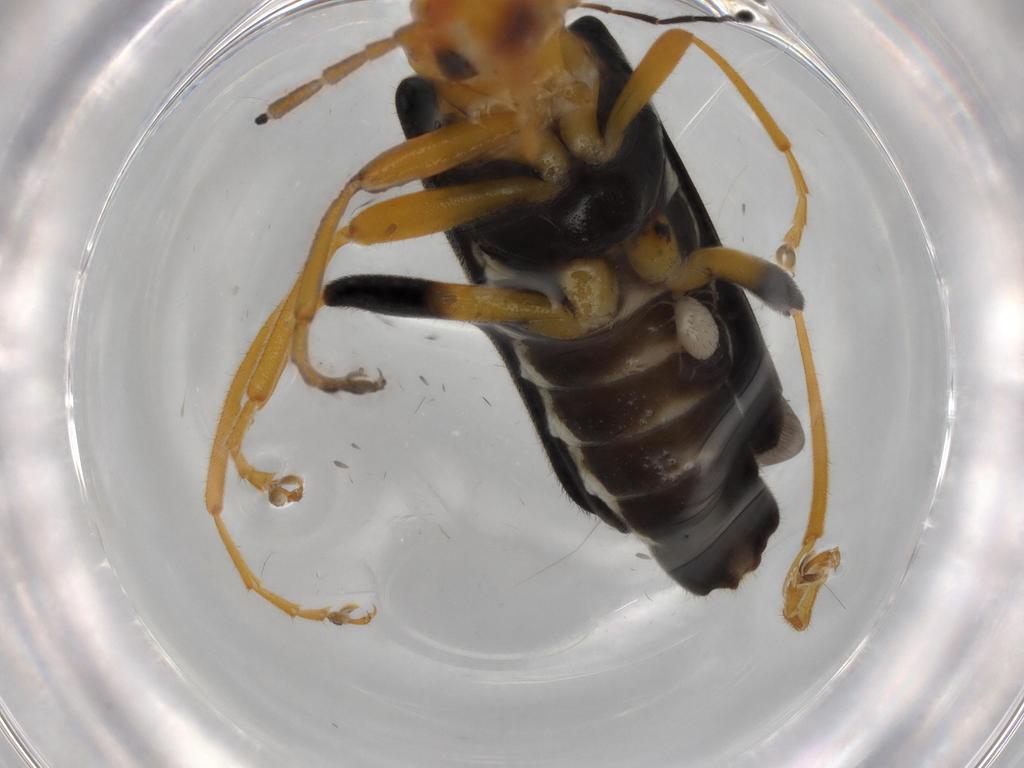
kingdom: Animalia
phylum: Arthropoda
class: Insecta
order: Coleoptera
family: Cantharidae
